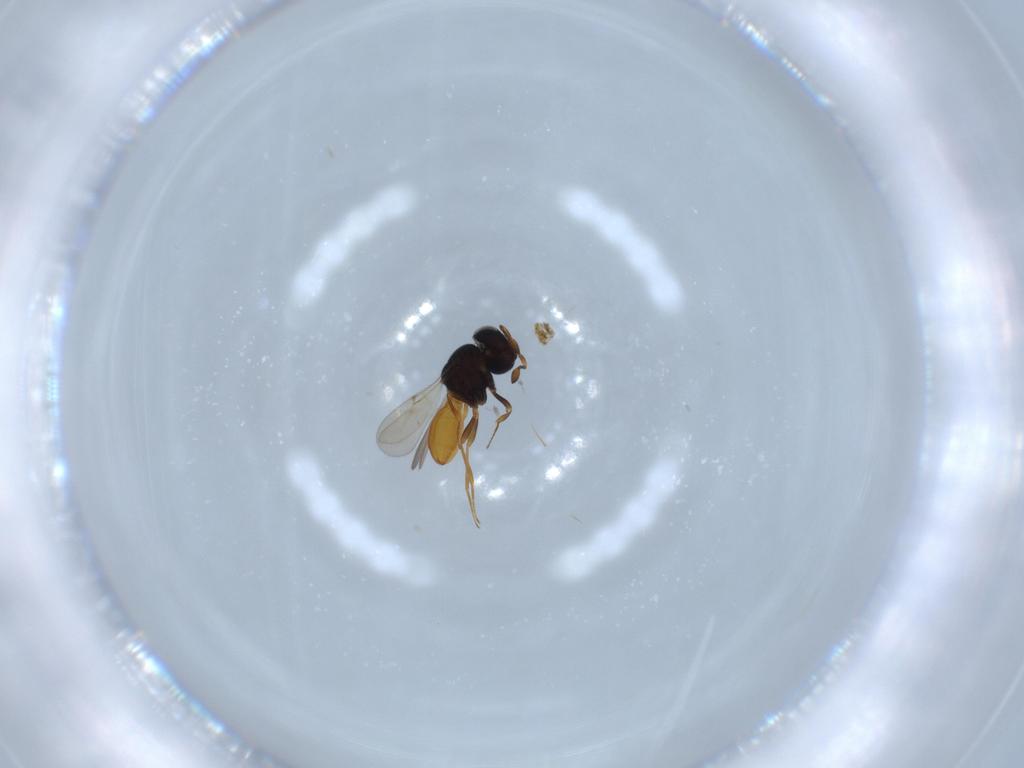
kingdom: Animalia
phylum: Arthropoda
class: Insecta
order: Hymenoptera
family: Scelionidae
